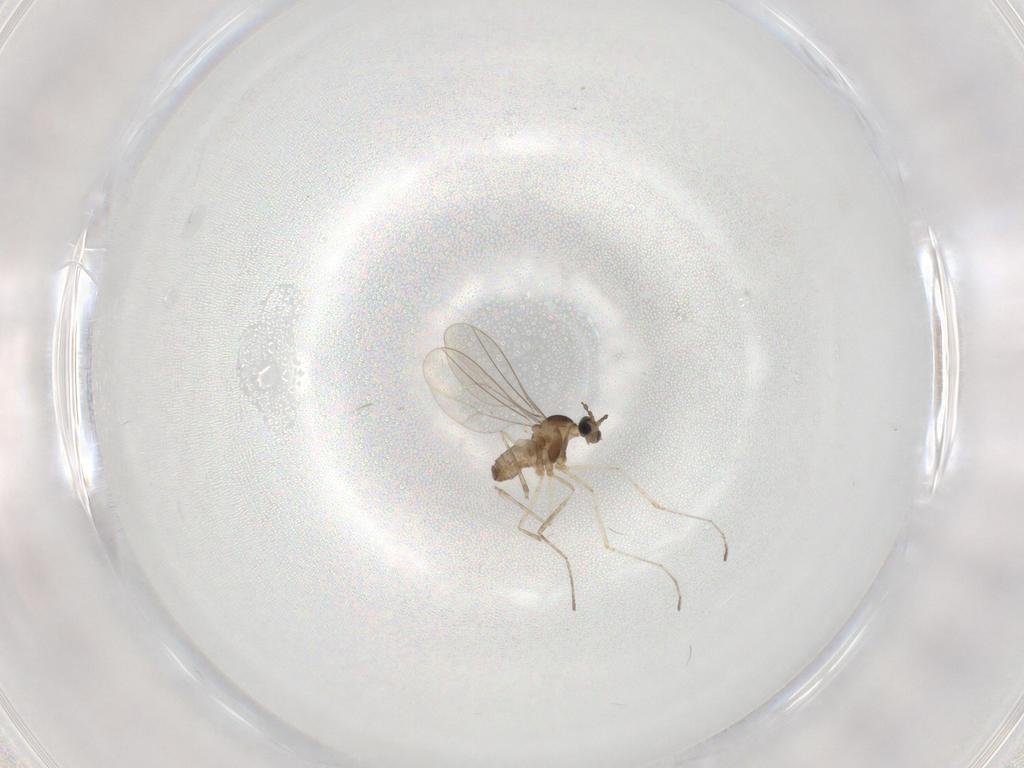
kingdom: Animalia
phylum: Arthropoda
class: Insecta
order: Diptera
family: Cecidomyiidae
